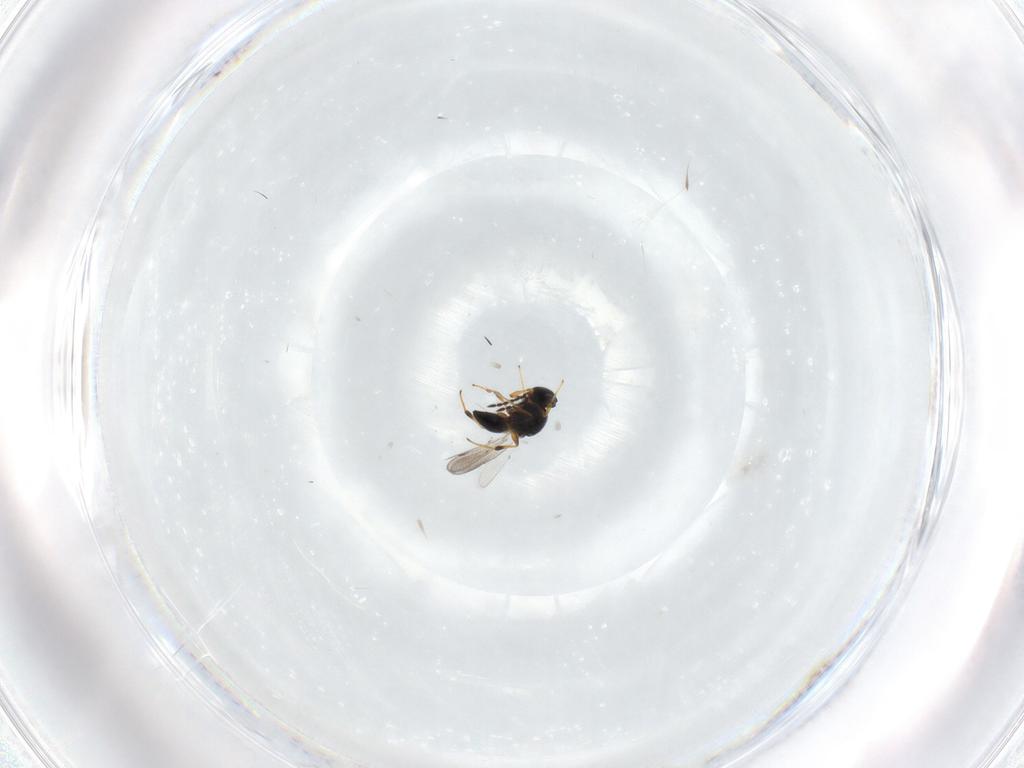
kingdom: Animalia
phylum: Arthropoda
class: Insecta
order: Hymenoptera
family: Platygastridae
